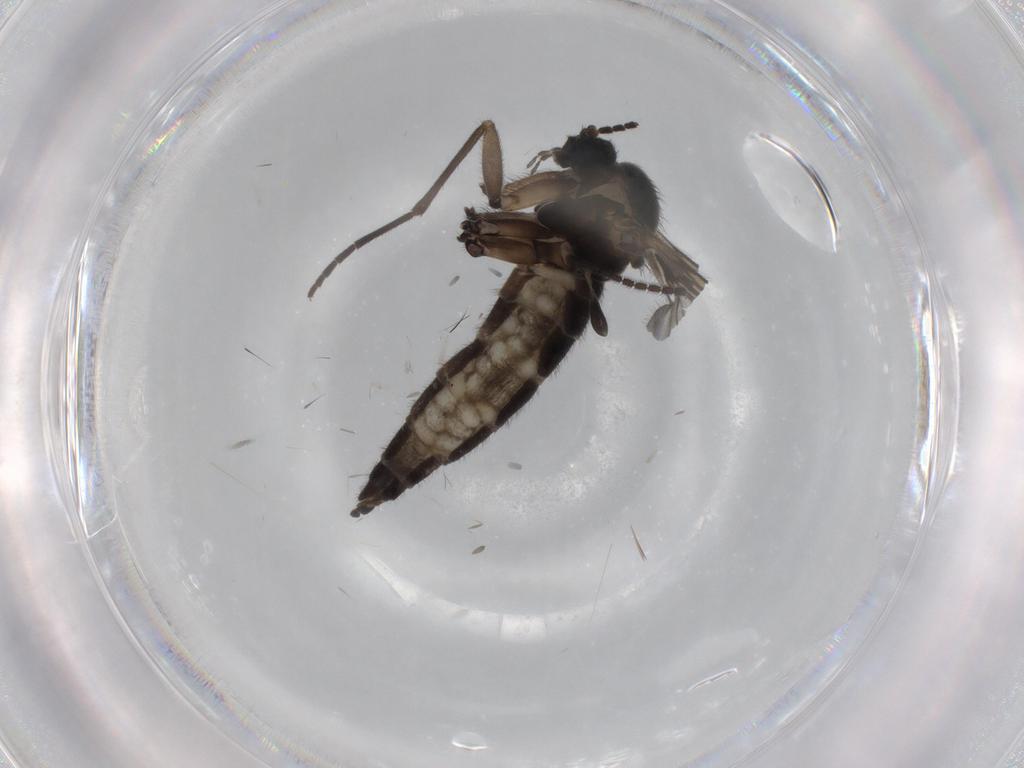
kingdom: Animalia
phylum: Arthropoda
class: Insecta
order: Diptera
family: Sciaridae
